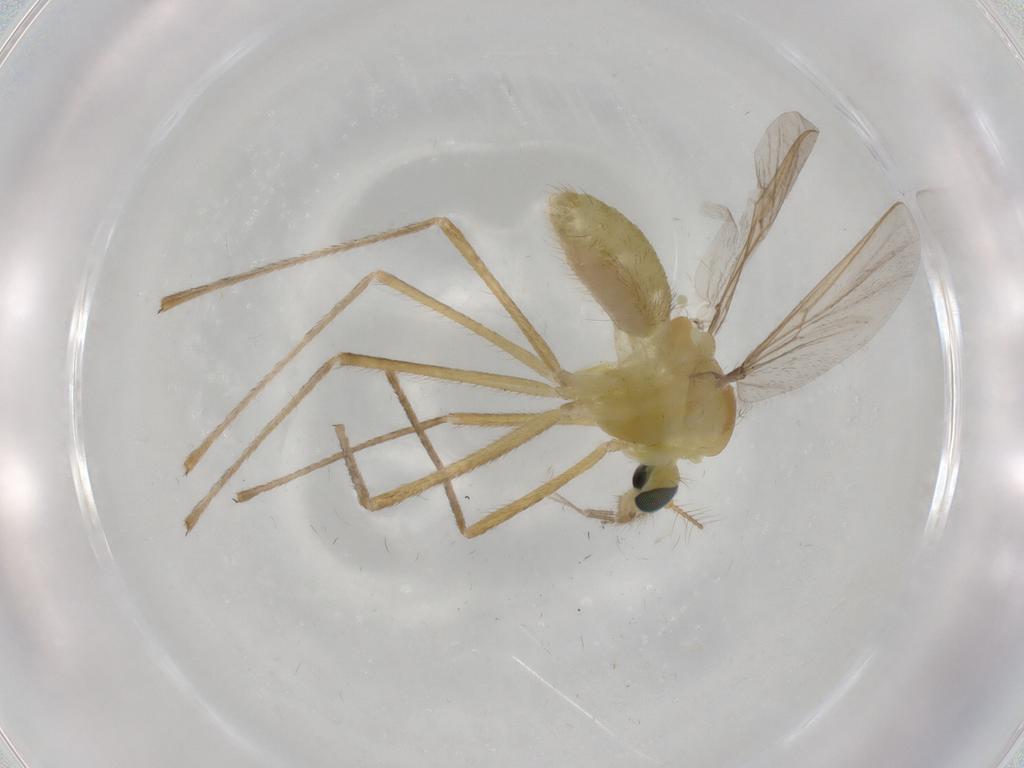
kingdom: Animalia
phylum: Arthropoda
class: Insecta
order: Diptera
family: Chironomidae
